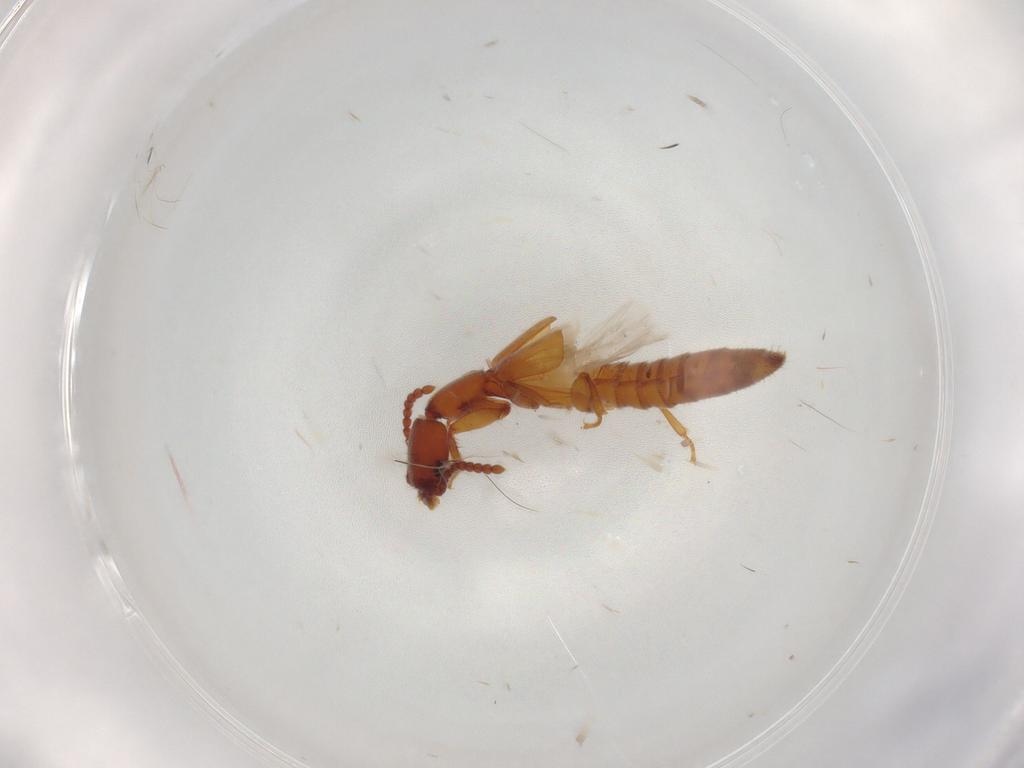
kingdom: Animalia
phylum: Arthropoda
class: Insecta
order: Coleoptera
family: Staphylinidae
